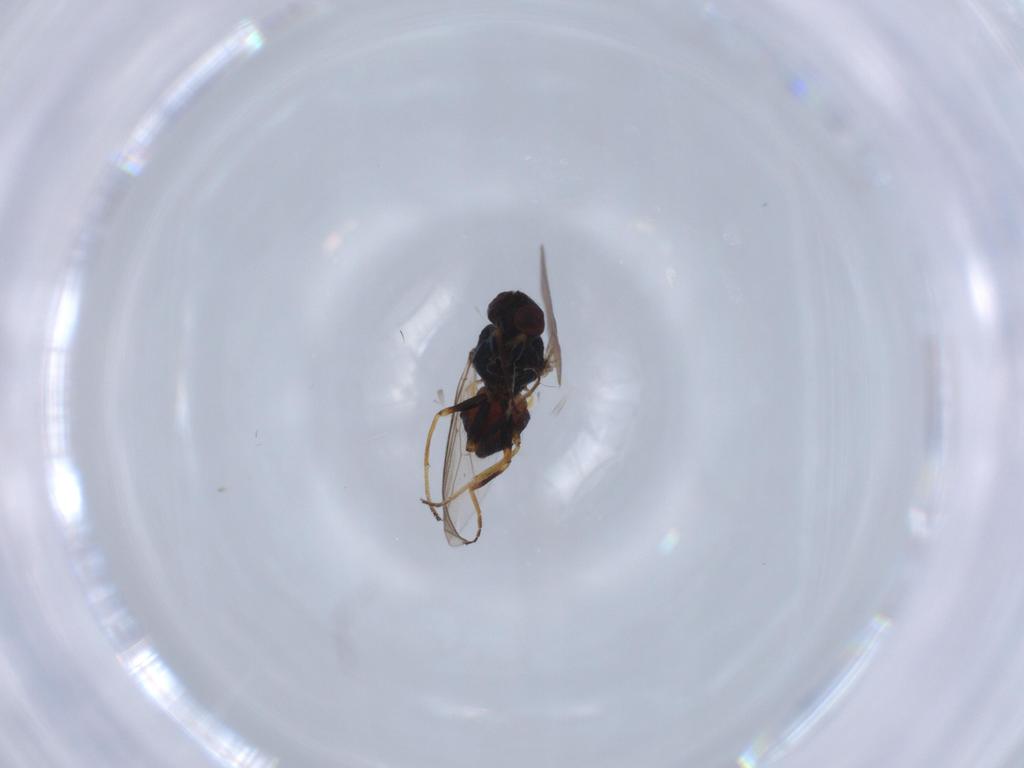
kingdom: Animalia
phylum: Arthropoda
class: Insecta
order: Diptera
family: Chloropidae
